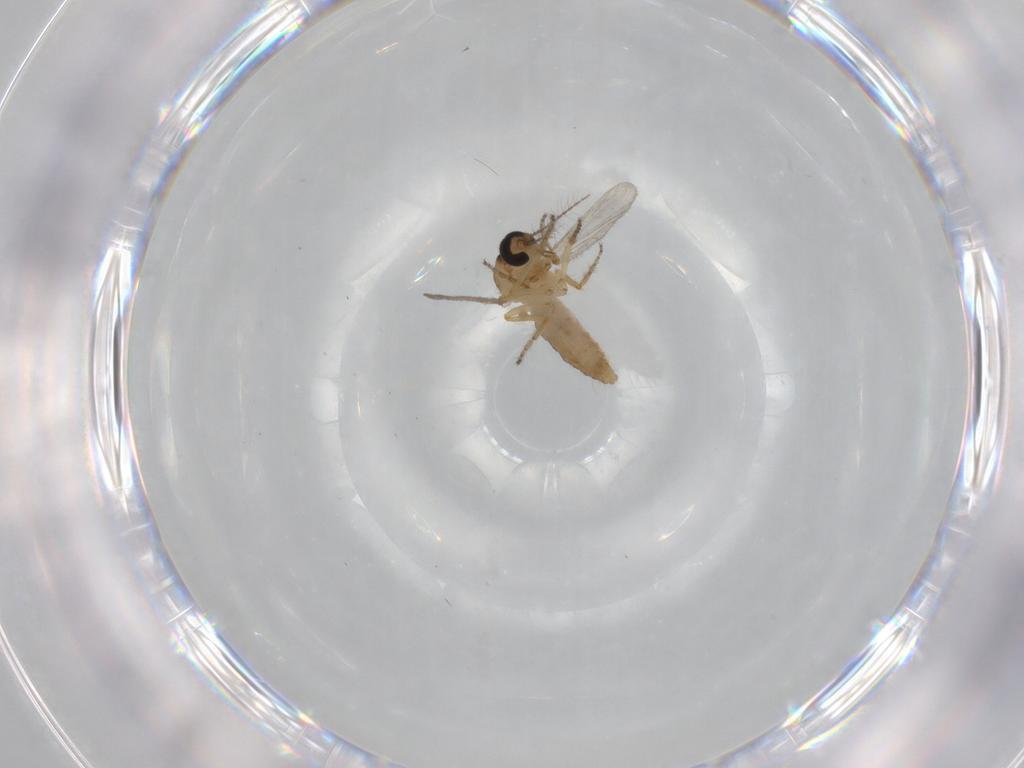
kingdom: Animalia
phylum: Arthropoda
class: Insecta
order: Diptera
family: Ceratopogonidae
